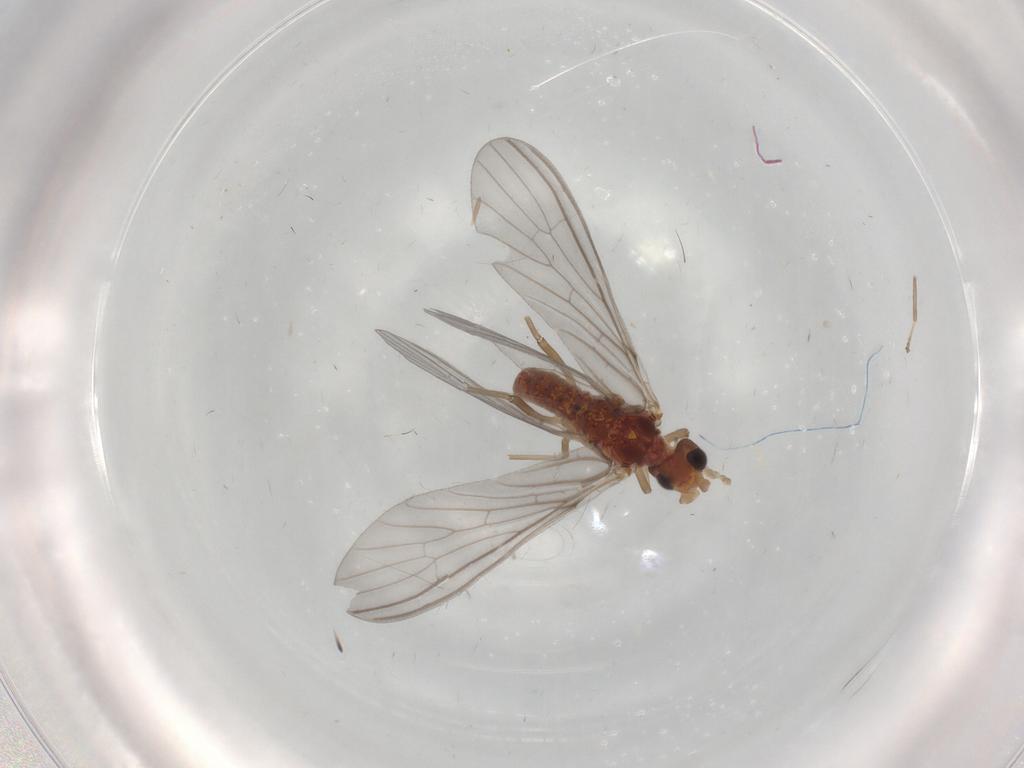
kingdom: Animalia
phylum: Arthropoda
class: Insecta
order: Neuroptera
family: Coniopterygidae
